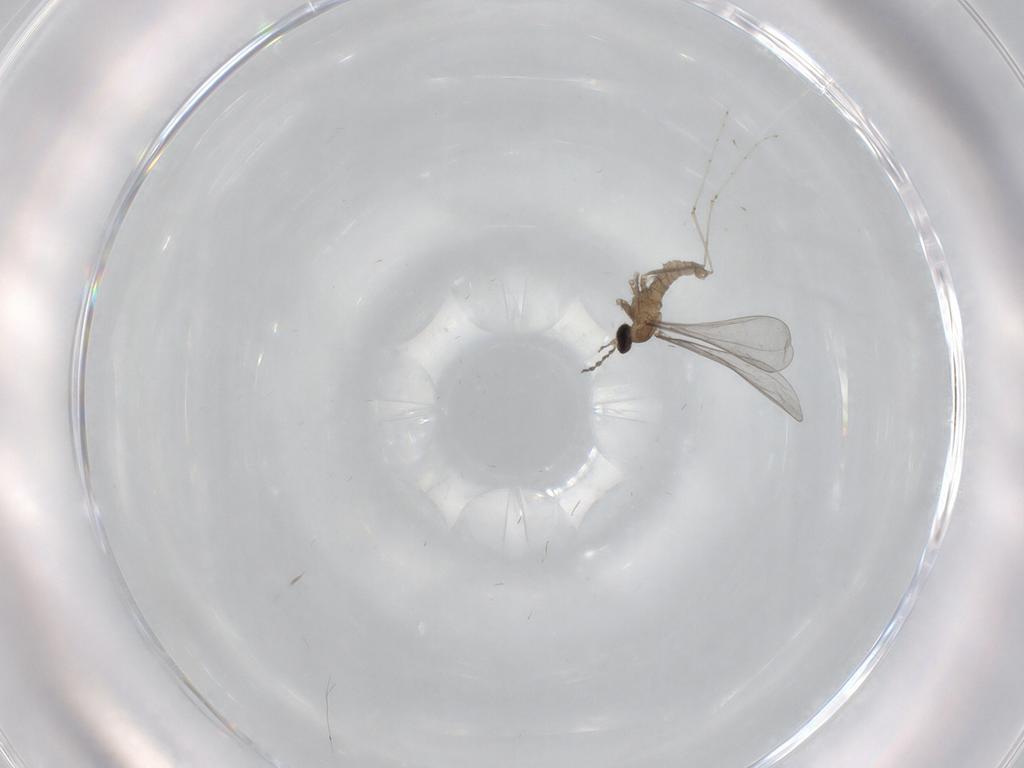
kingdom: Animalia
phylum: Arthropoda
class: Insecta
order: Diptera
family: Cecidomyiidae
